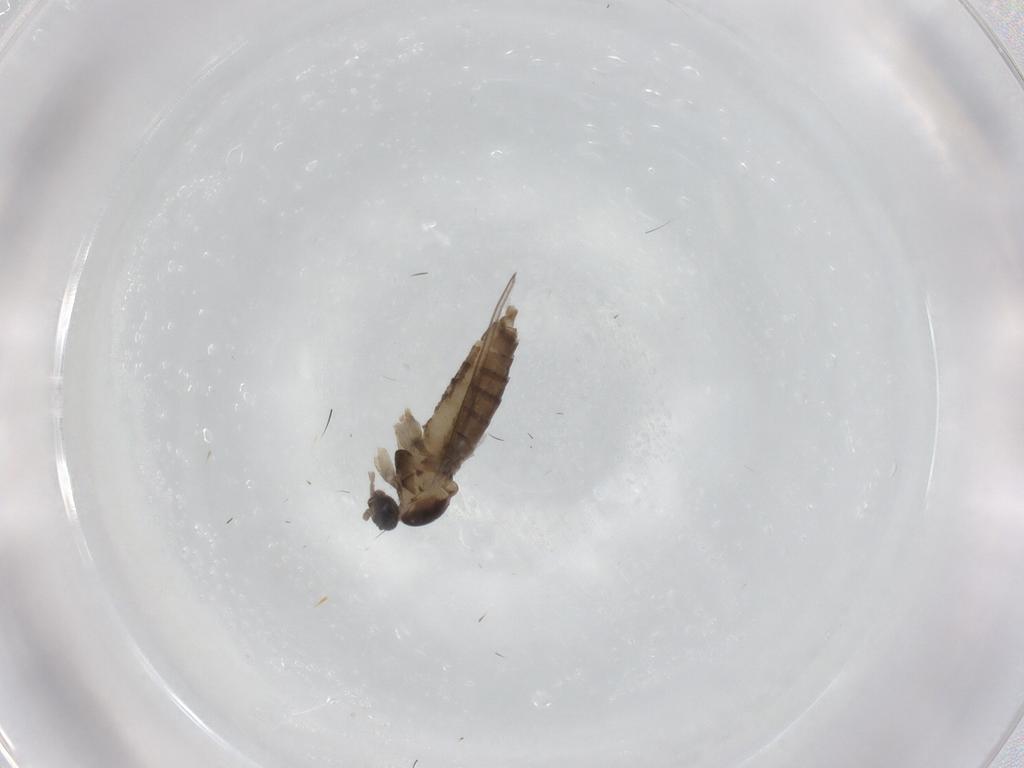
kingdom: Animalia
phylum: Arthropoda
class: Insecta
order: Diptera
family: Cecidomyiidae
